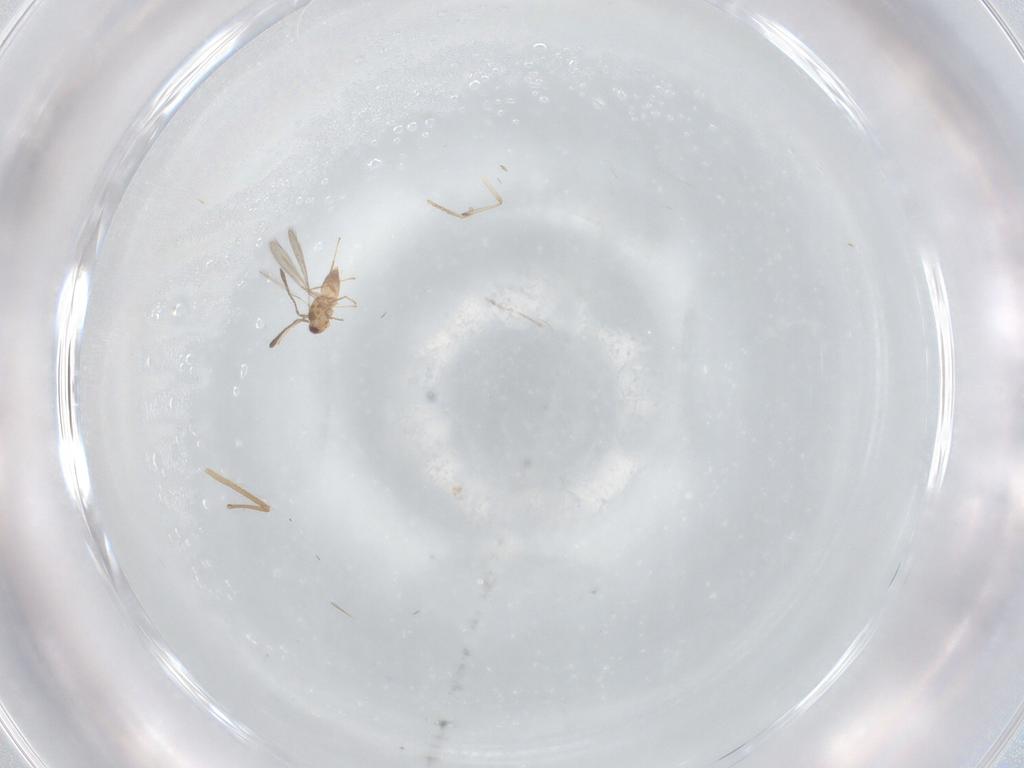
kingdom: Animalia
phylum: Arthropoda
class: Insecta
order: Hymenoptera
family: Mymaridae
